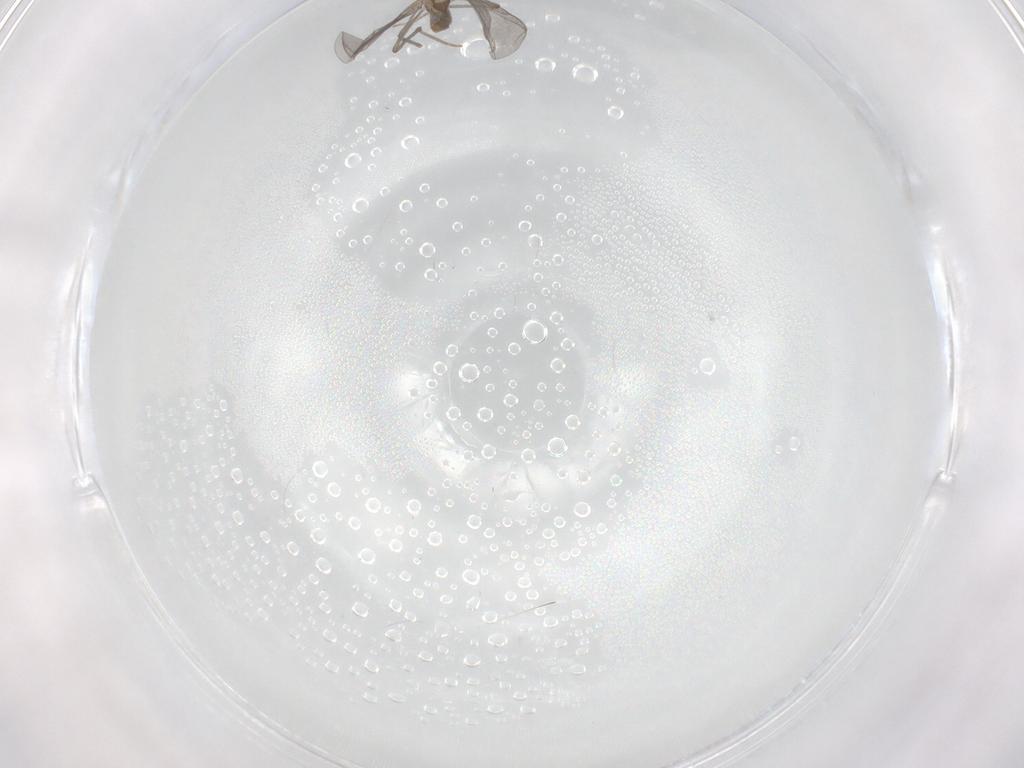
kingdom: Animalia
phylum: Arthropoda
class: Insecta
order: Diptera
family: Chironomidae
